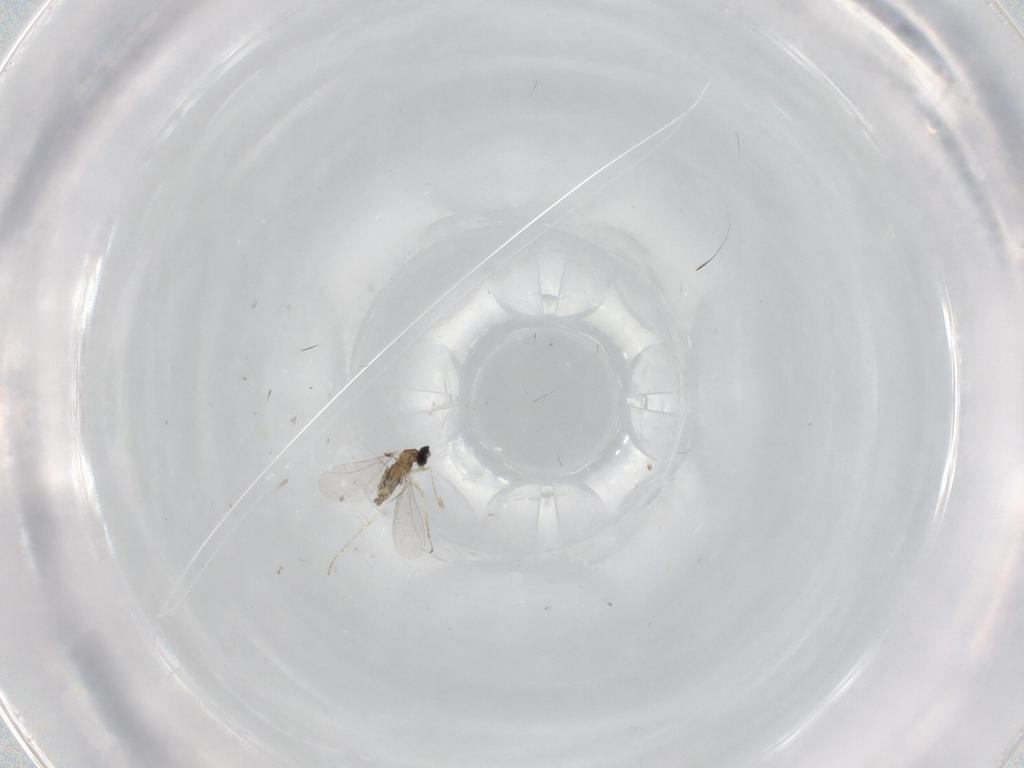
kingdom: Animalia
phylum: Arthropoda
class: Insecta
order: Diptera
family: Cecidomyiidae
